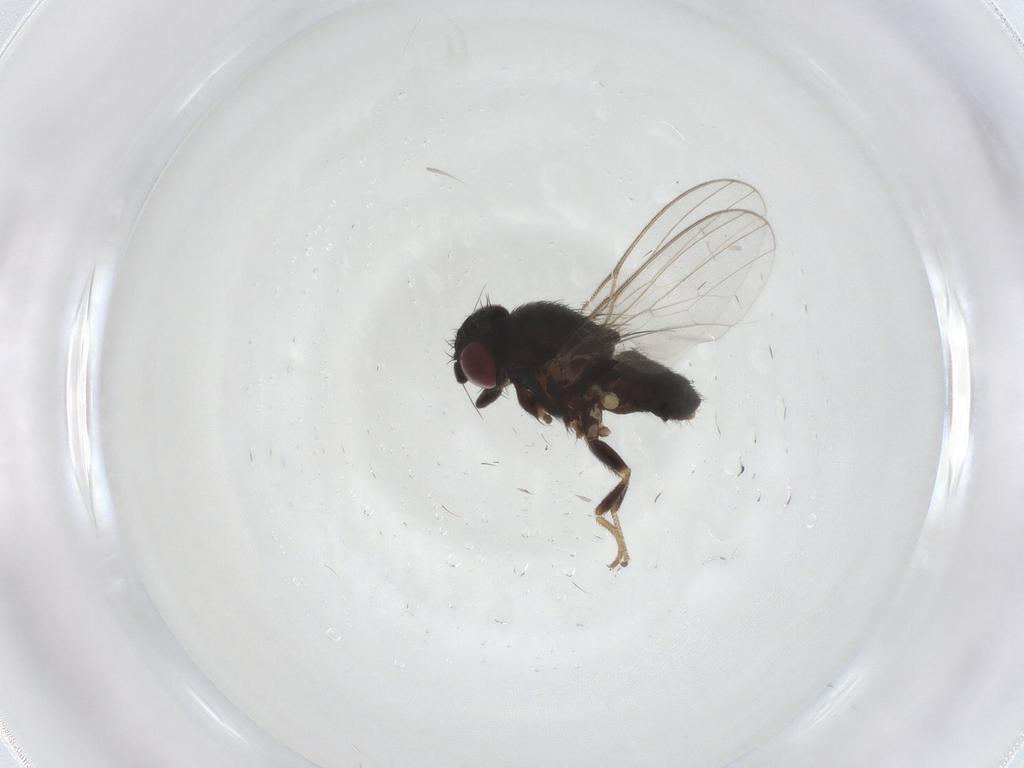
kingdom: Animalia
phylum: Arthropoda
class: Insecta
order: Diptera
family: Milichiidae
